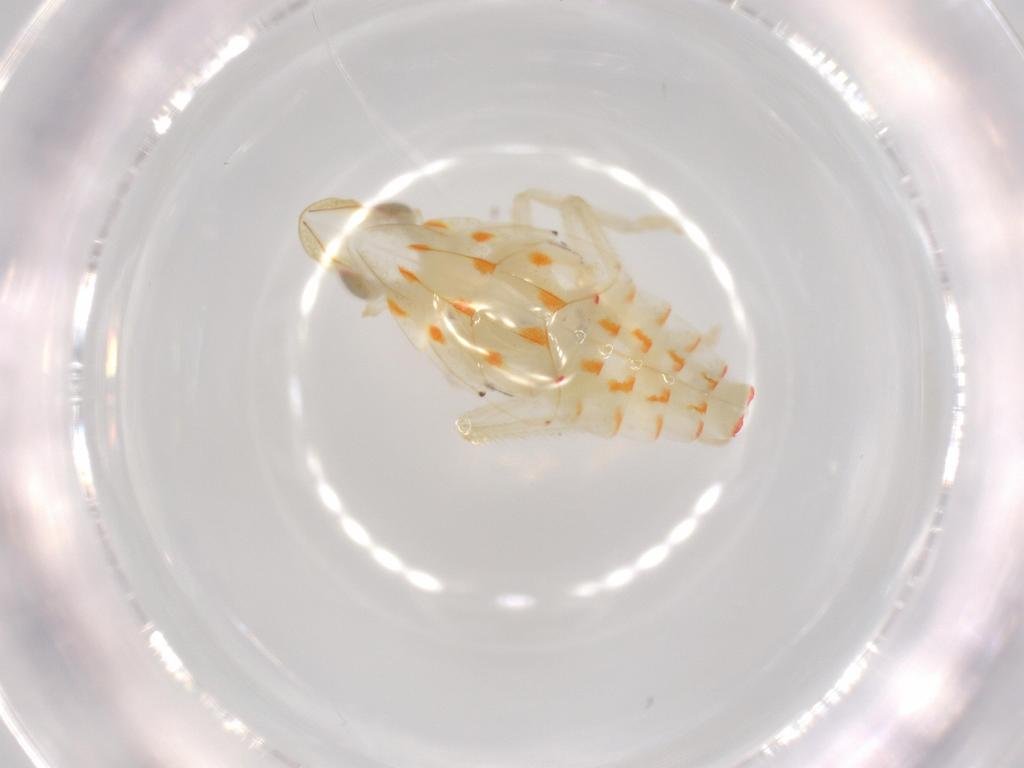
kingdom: Animalia
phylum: Arthropoda
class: Insecta
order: Hemiptera
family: Tropiduchidae
